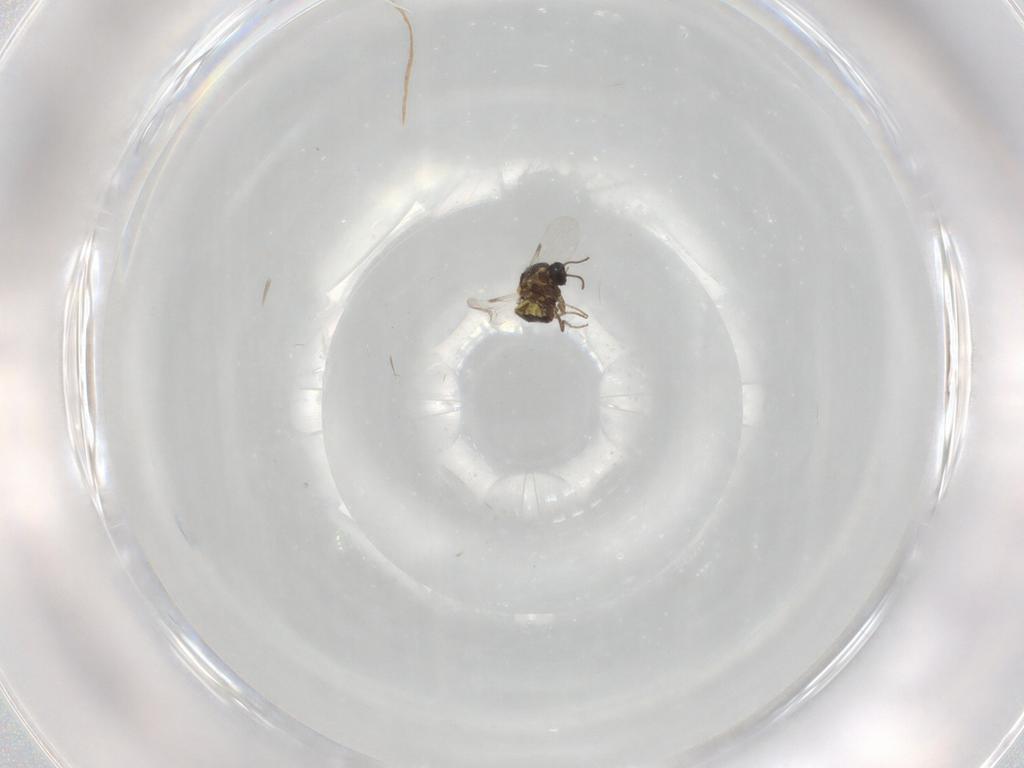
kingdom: Animalia
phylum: Arthropoda
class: Insecta
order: Diptera
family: Ceratopogonidae
